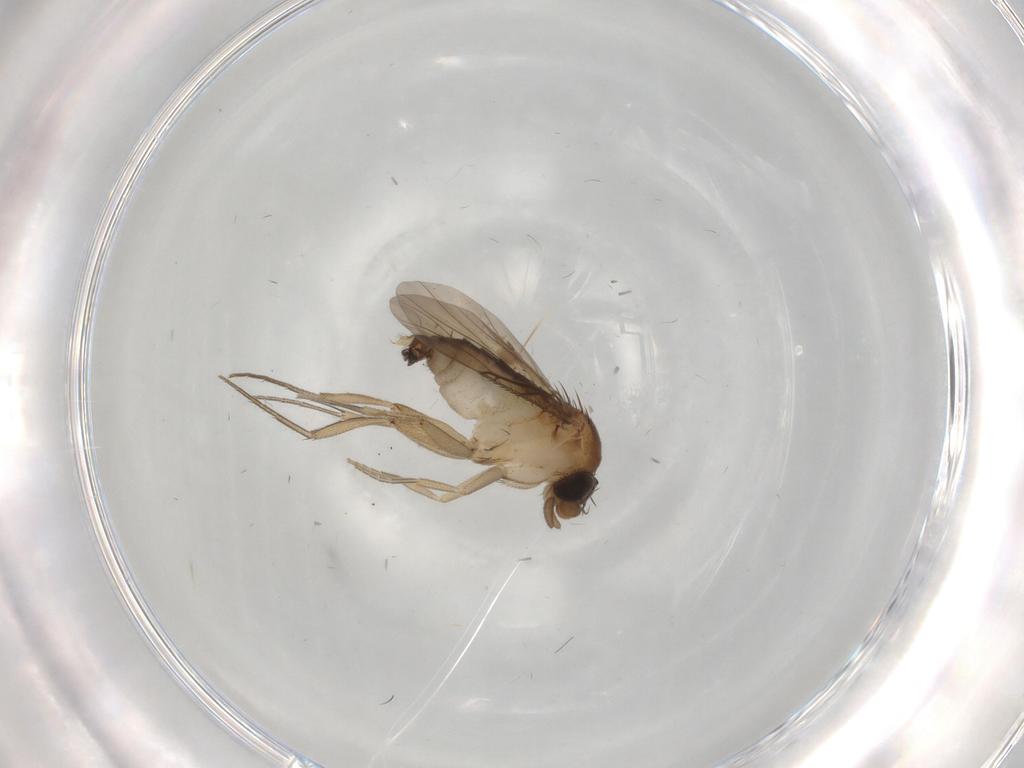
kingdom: Animalia
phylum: Arthropoda
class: Insecta
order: Diptera
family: Phoridae
